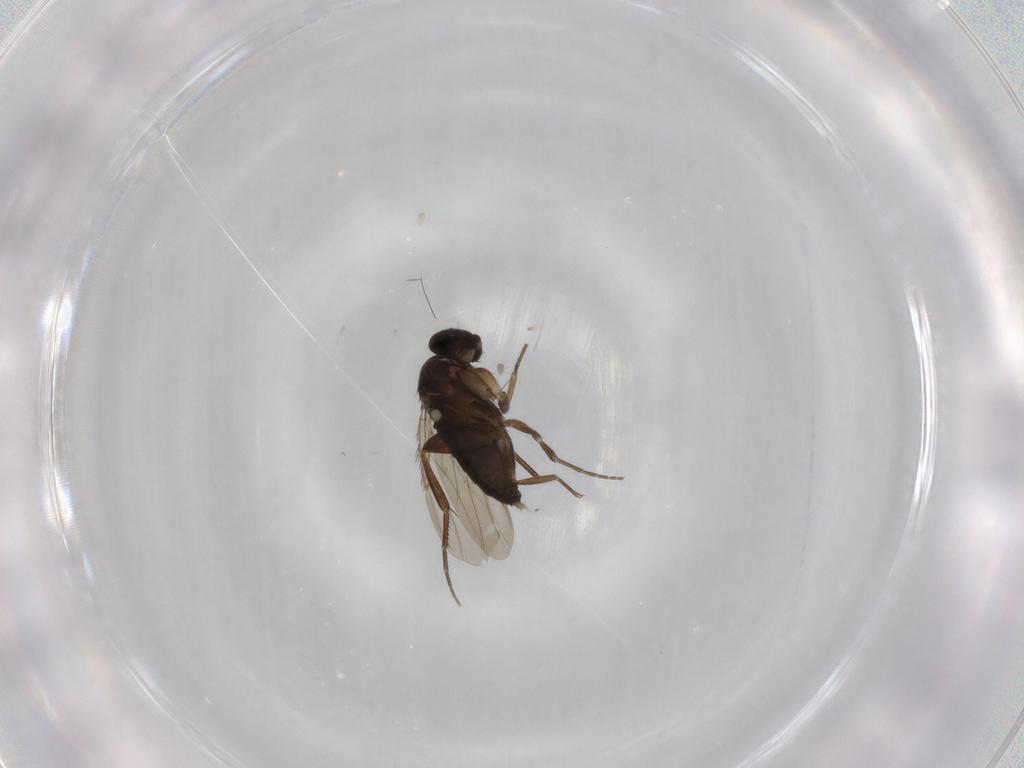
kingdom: Animalia
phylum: Arthropoda
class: Insecta
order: Diptera
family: Phoridae
